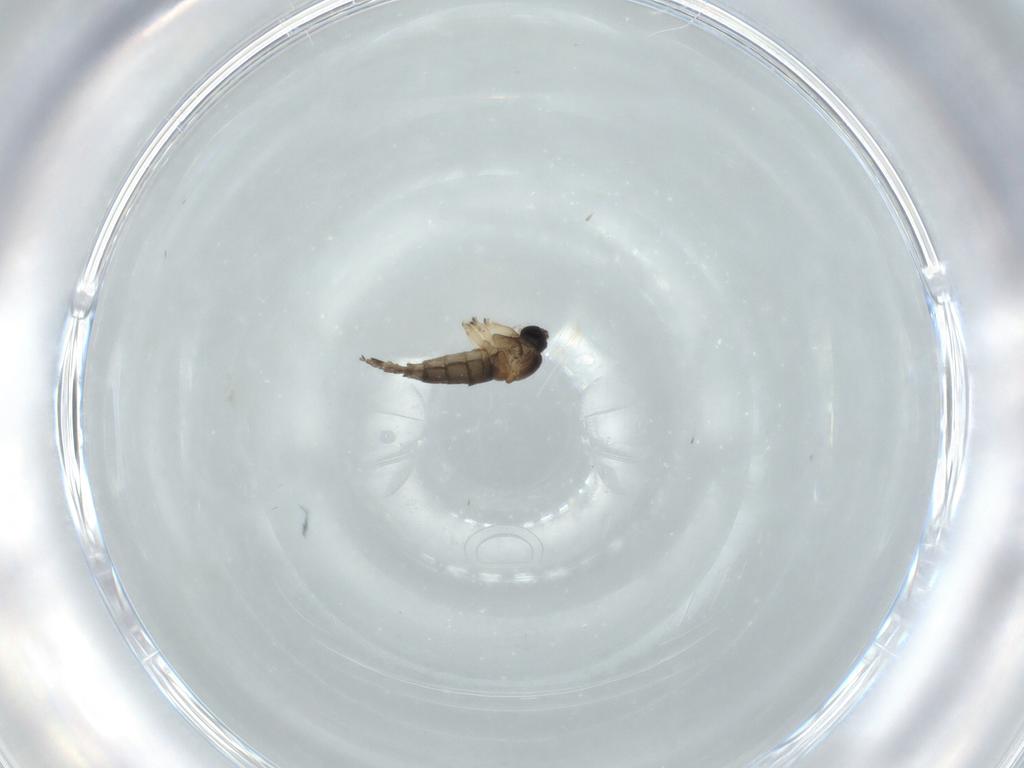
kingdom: Animalia
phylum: Arthropoda
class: Insecta
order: Diptera
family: Sciaridae
